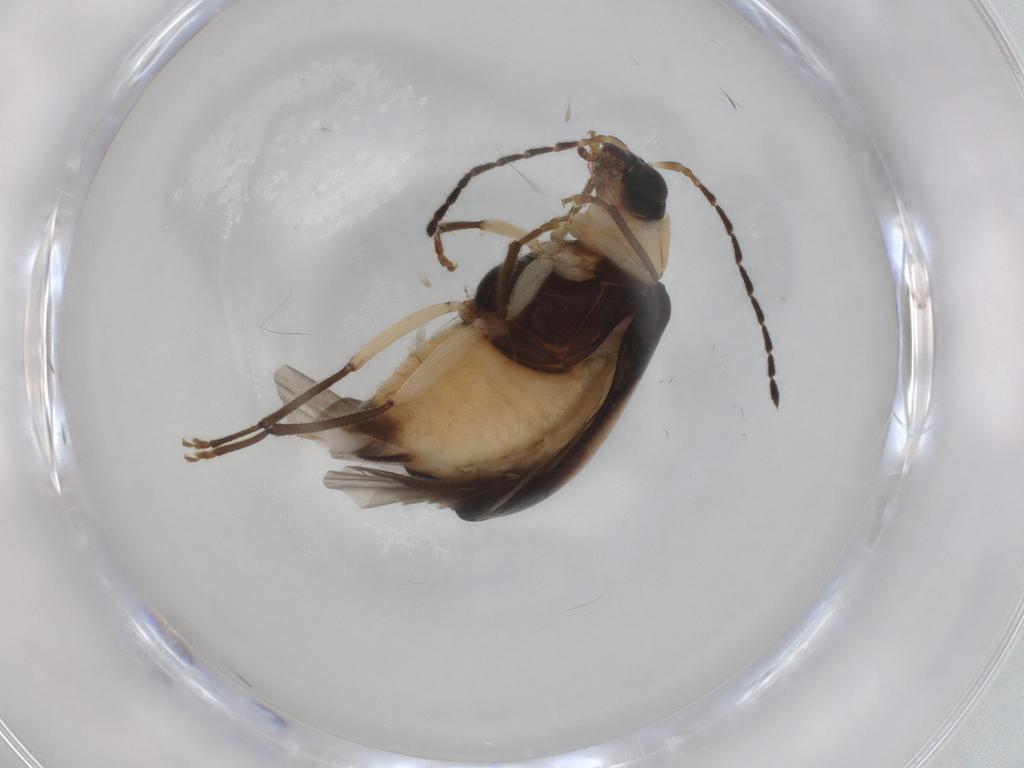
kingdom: Animalia
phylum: Arthropoda
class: Insecta
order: Coleoptera
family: Chrysomelidae
